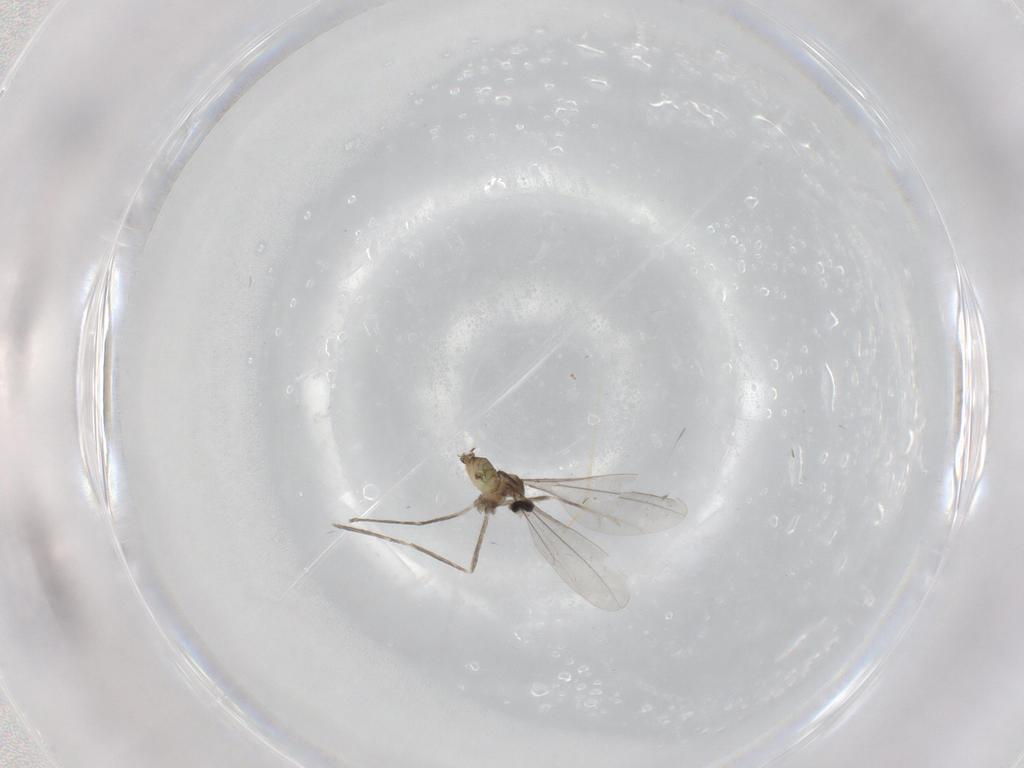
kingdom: Animalia
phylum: Arthropoda
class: Insecta
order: Diptera
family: Cecidomyiidae
